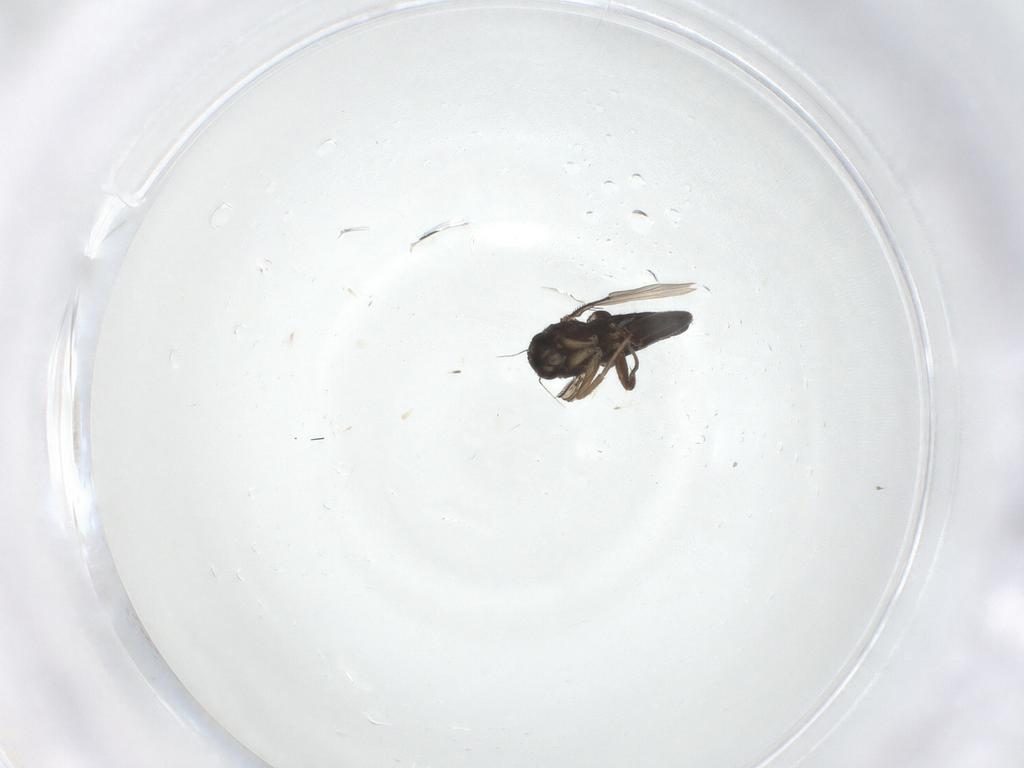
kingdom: Animalia
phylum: Arthropoda
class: Insecta
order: Diptera
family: Phoridae
